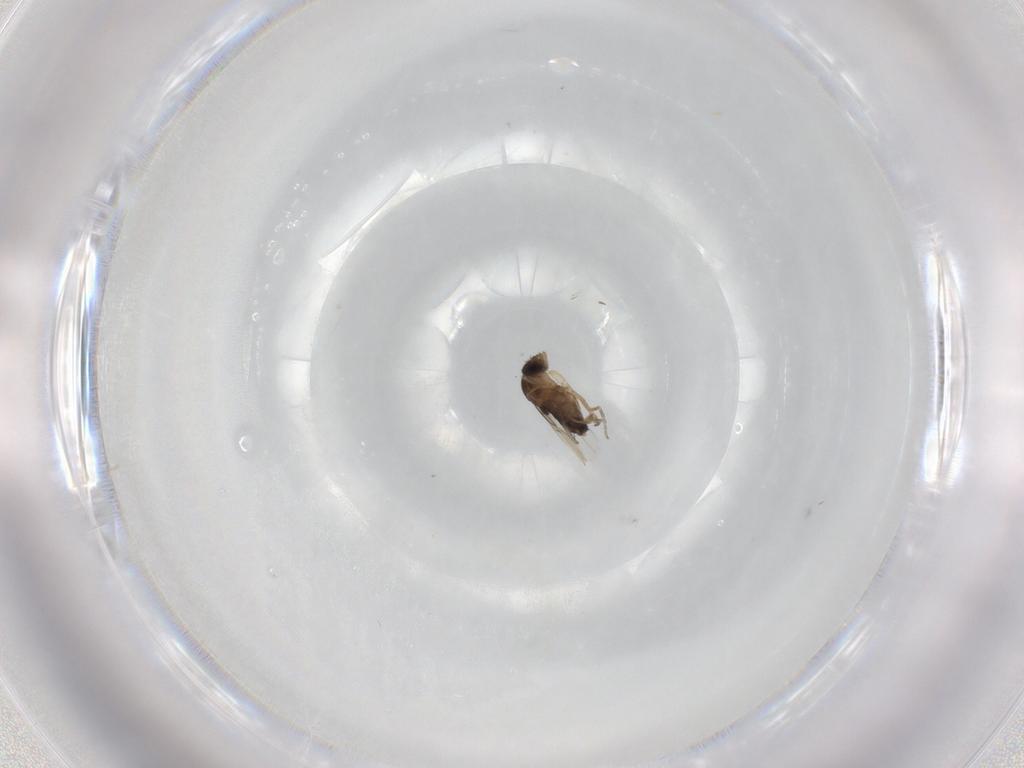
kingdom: Animalia
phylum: Arthropoda
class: Insecta
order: Diptera
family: Phoridae
